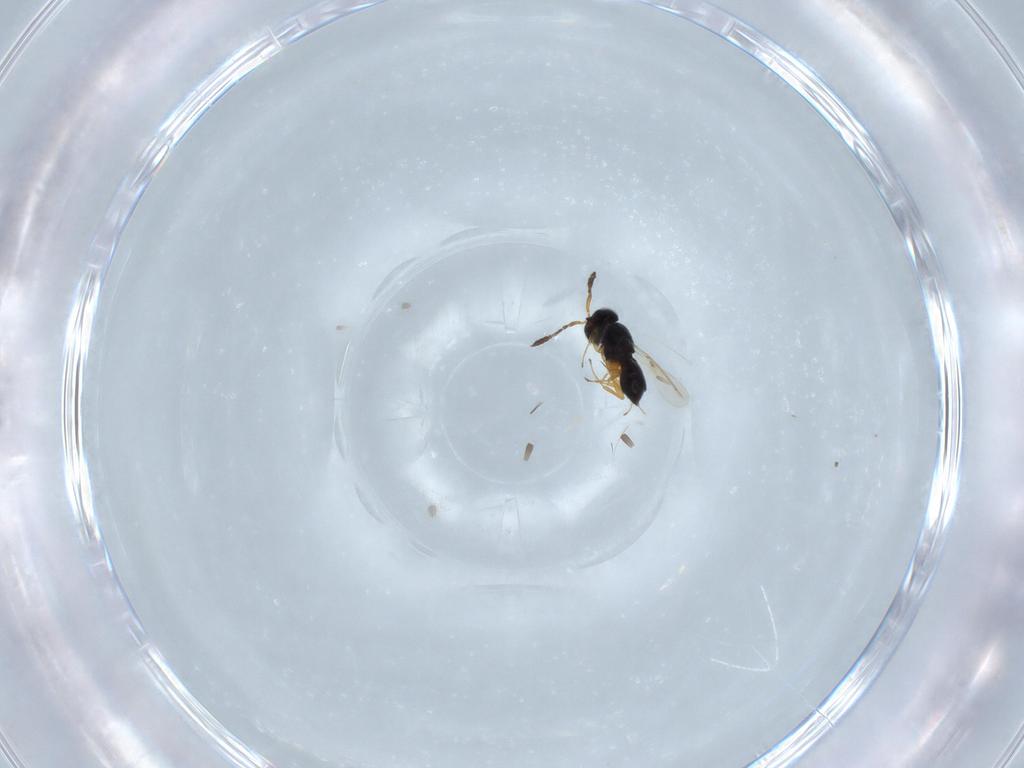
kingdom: Animalia
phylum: Arthropoda
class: Insecta
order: Hymenoptera
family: Scelionidae
